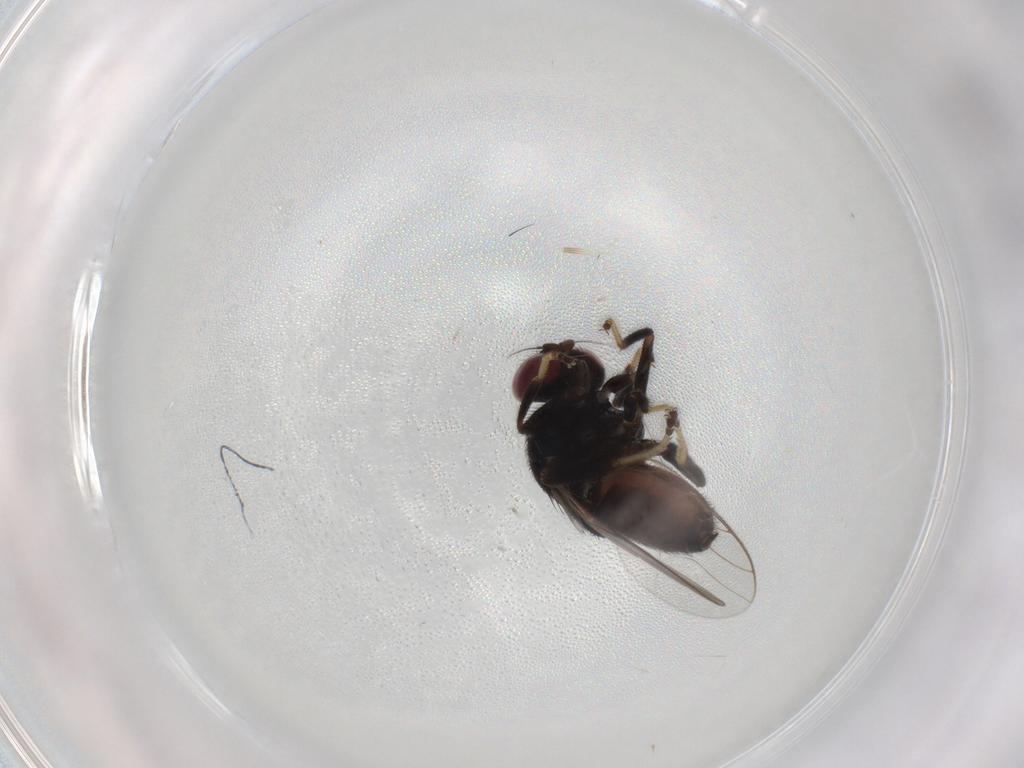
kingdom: Animalia
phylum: Arthropoda
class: Insecta
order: Diptera
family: Chloropidae
